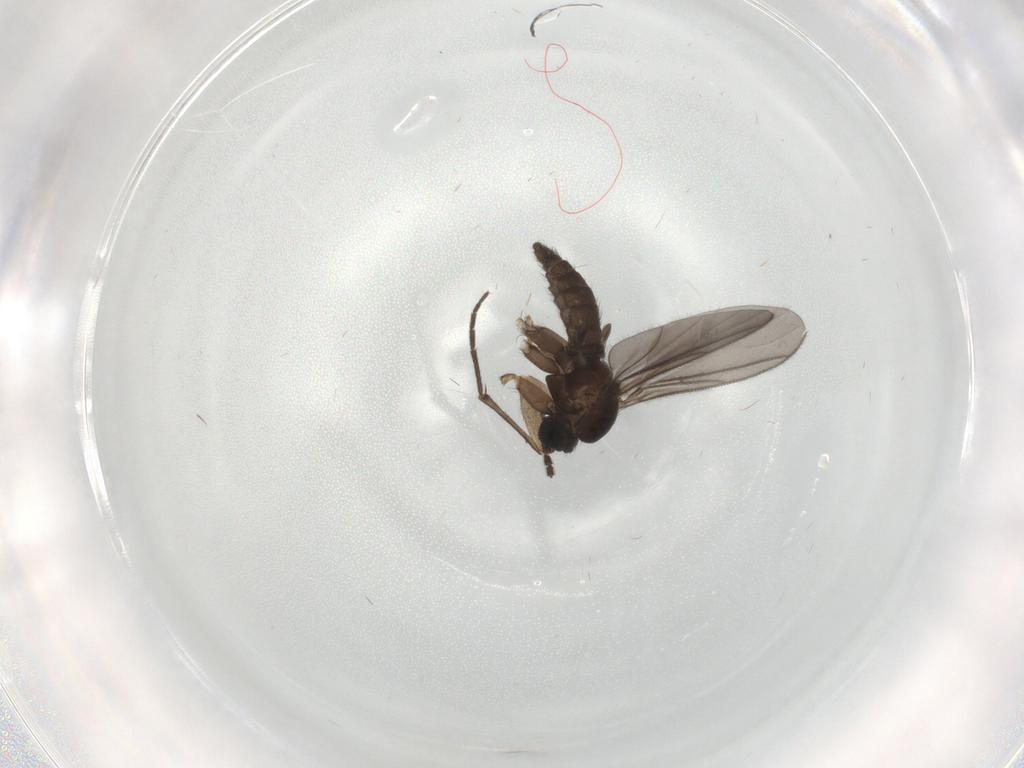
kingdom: Animalia
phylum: Arthropoda
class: Insecta
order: Diptera
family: Sciaridae
